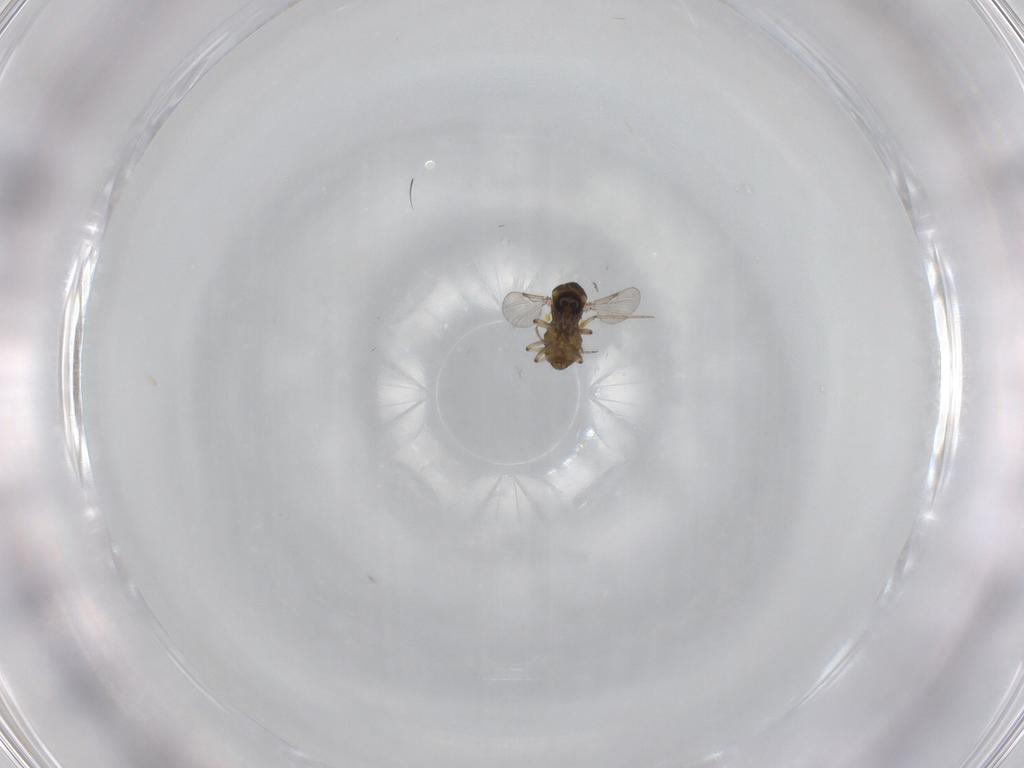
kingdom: Animalia
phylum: Arthropoda
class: Insecta
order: Diptera
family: Ceratopogonidae
